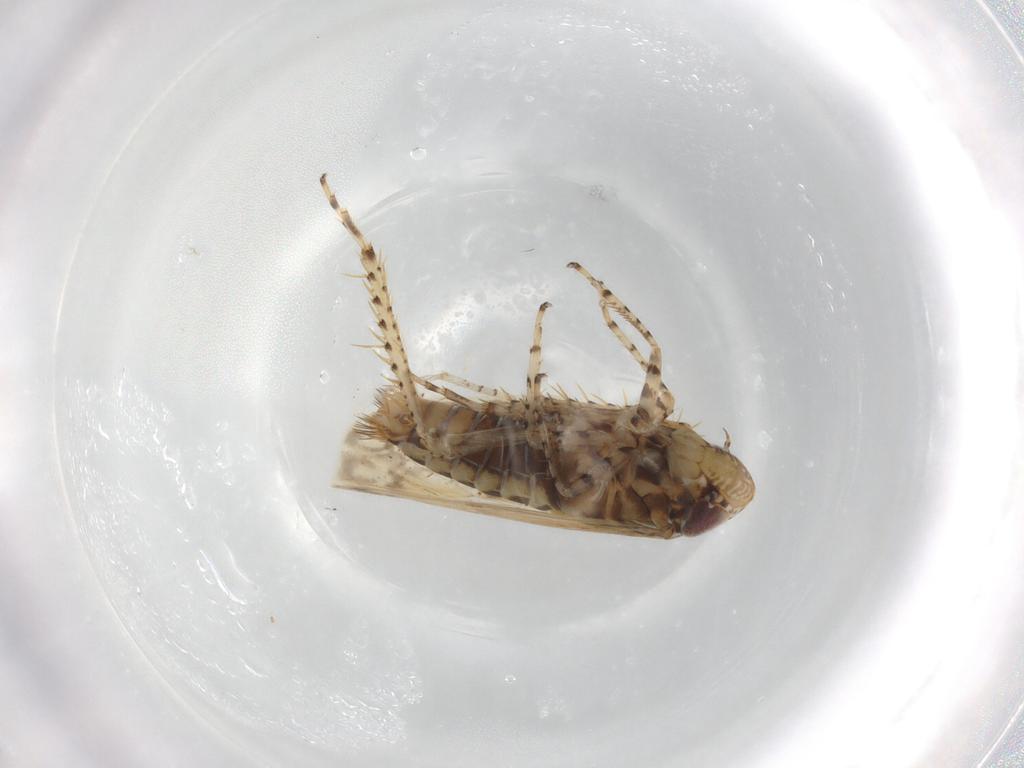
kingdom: Animalia
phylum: Arthropoda
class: Insecta
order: Hemiptera
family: Cicadellidae
